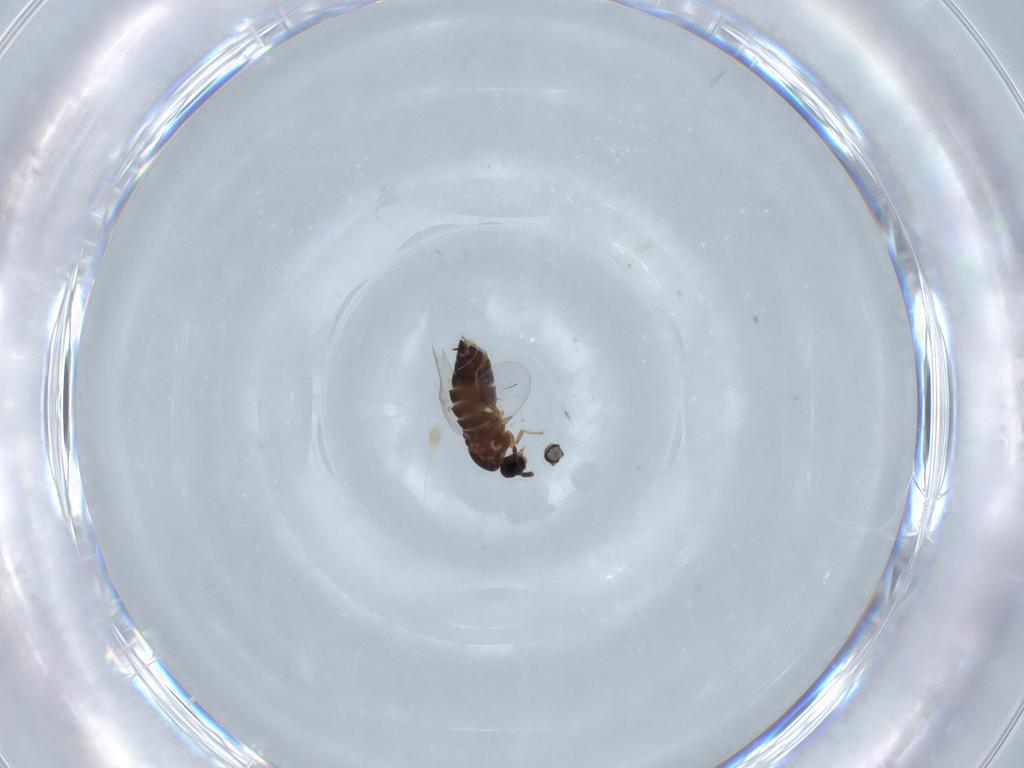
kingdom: Animalia
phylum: Arthropoda
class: Insecta
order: Diptera
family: Scatopsidae
